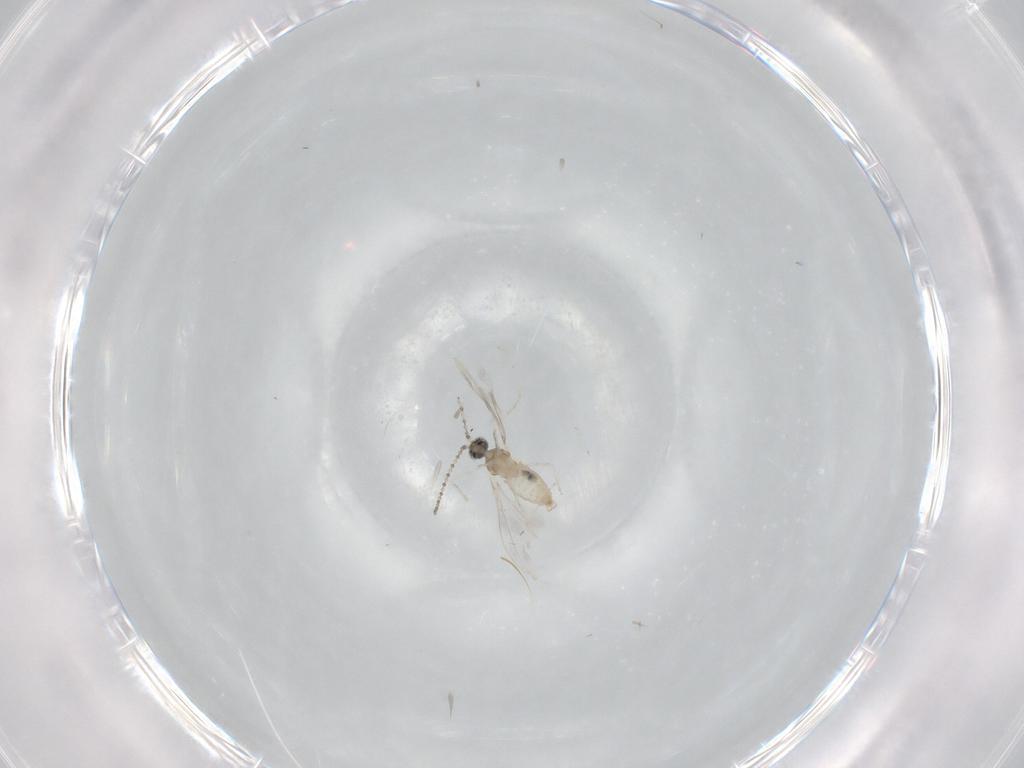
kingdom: Animalia
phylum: Arthropoda
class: Insecta
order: Diptera
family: Cecidomyiidae
